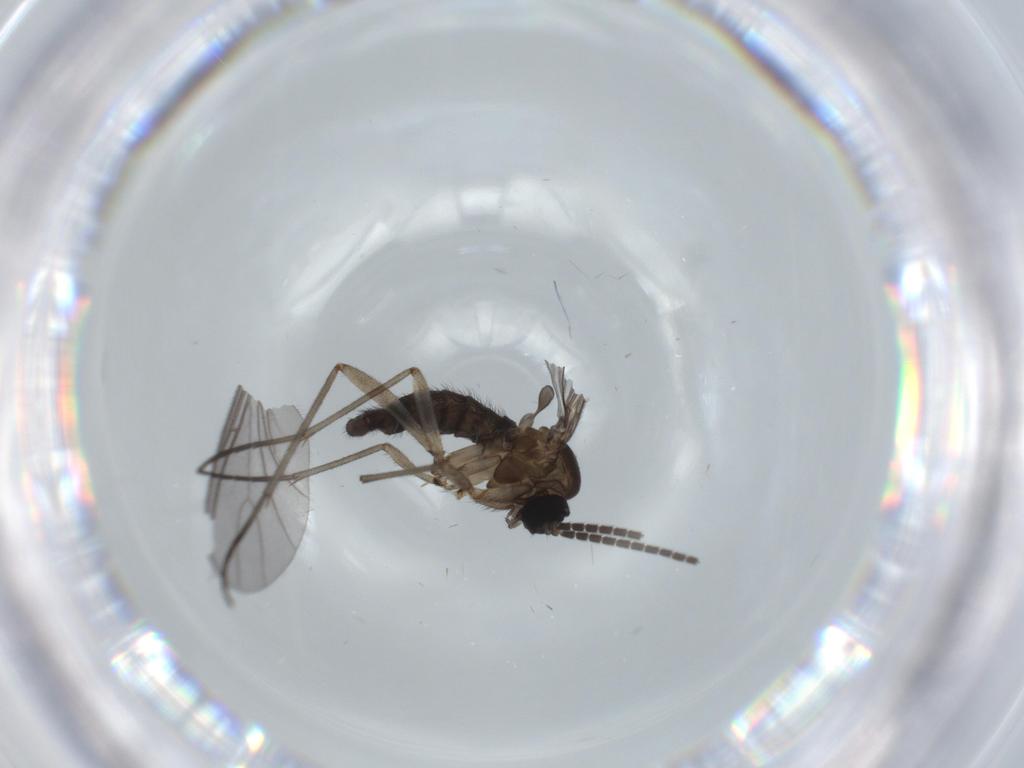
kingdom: Animalia
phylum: Arthropoda
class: Insecta
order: Diptera
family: Sciaridae
